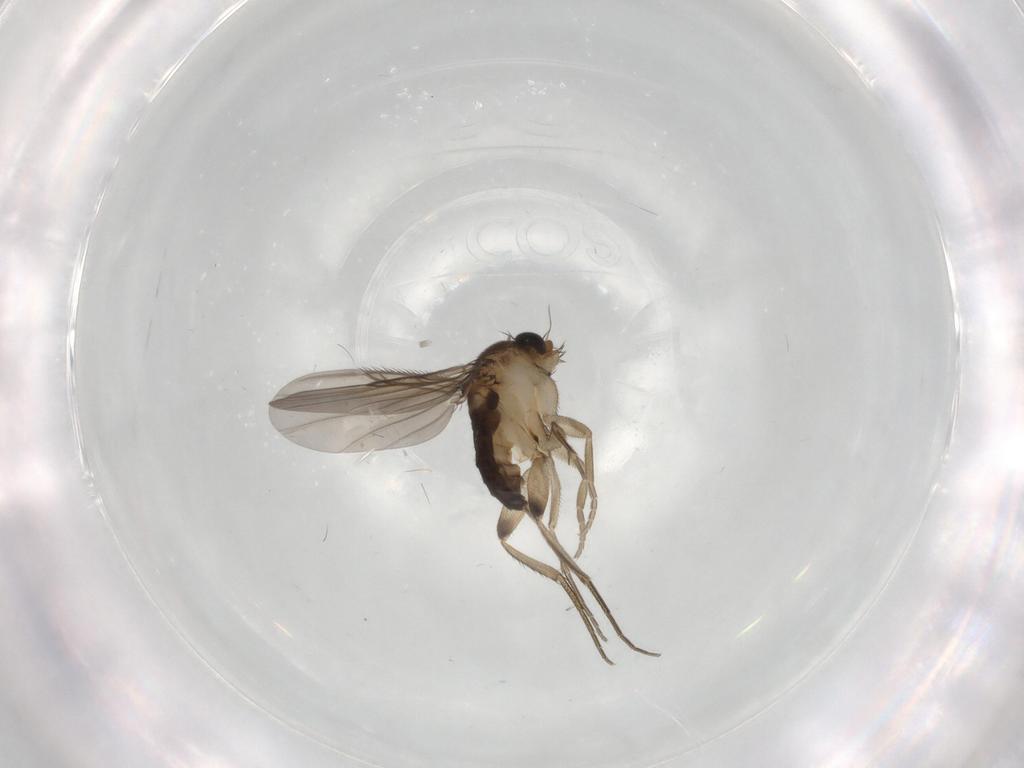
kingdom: Animalia
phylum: Arthropoda
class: Insecta
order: Diptera
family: Phoridae
